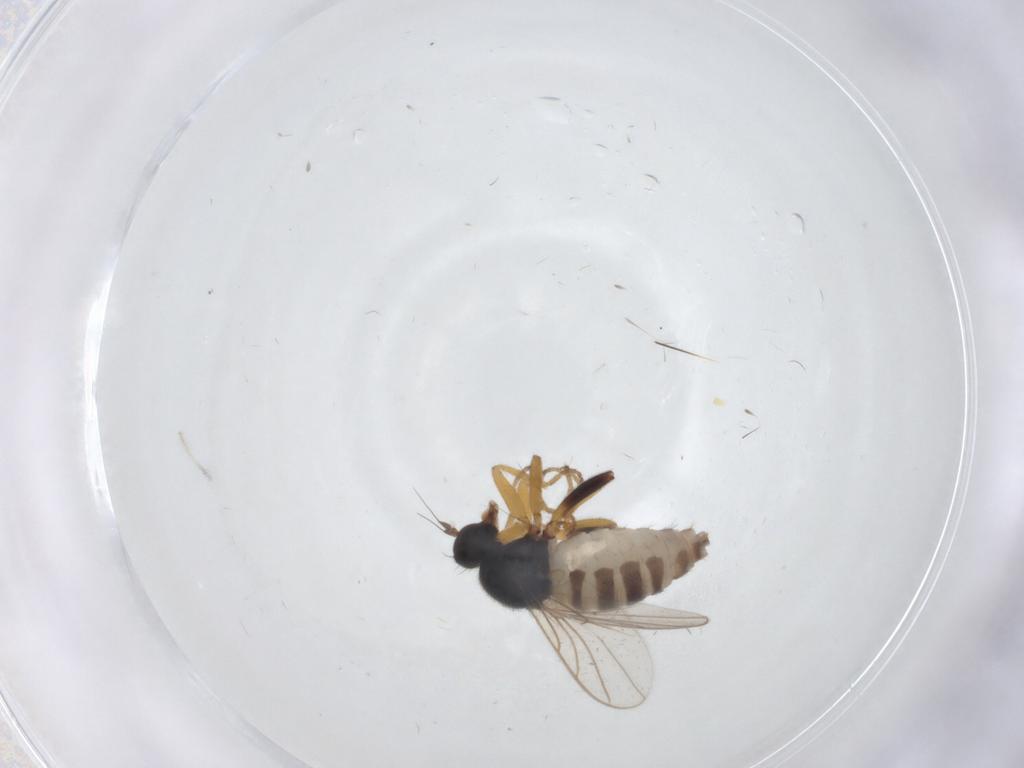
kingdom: Animalia
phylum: Arthropoda
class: Insecta
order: Diptera
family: Hybotidae
